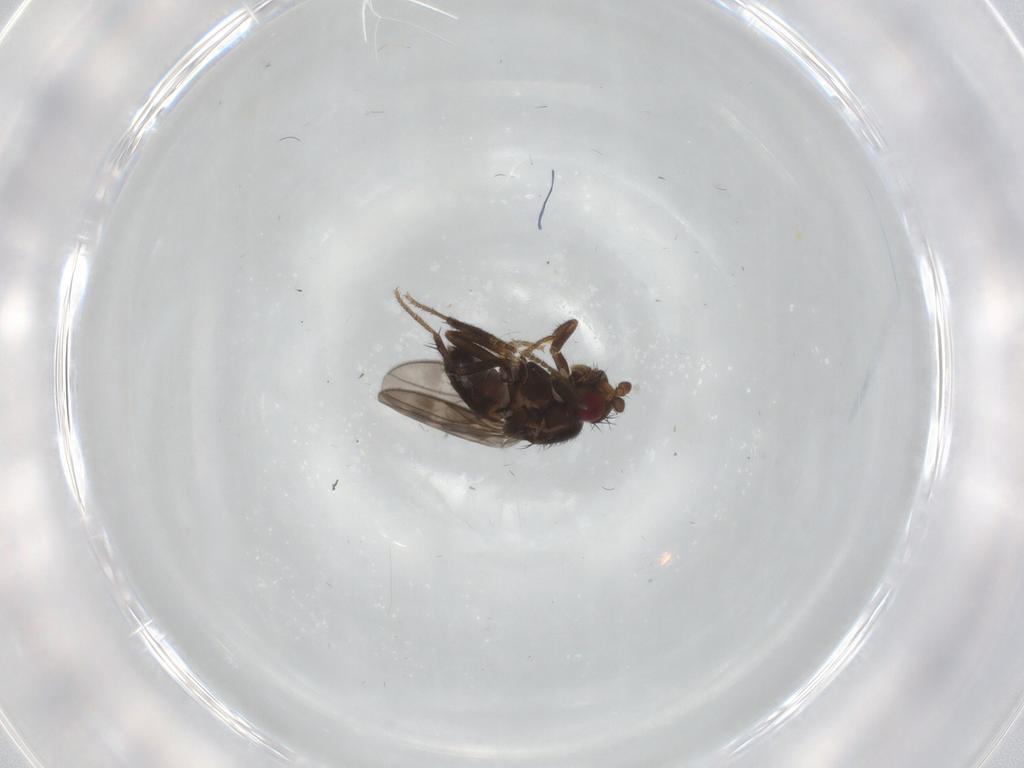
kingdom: Animalia
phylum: Arthropoda
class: Insecta
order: Diptera
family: Sphaeroceridae
